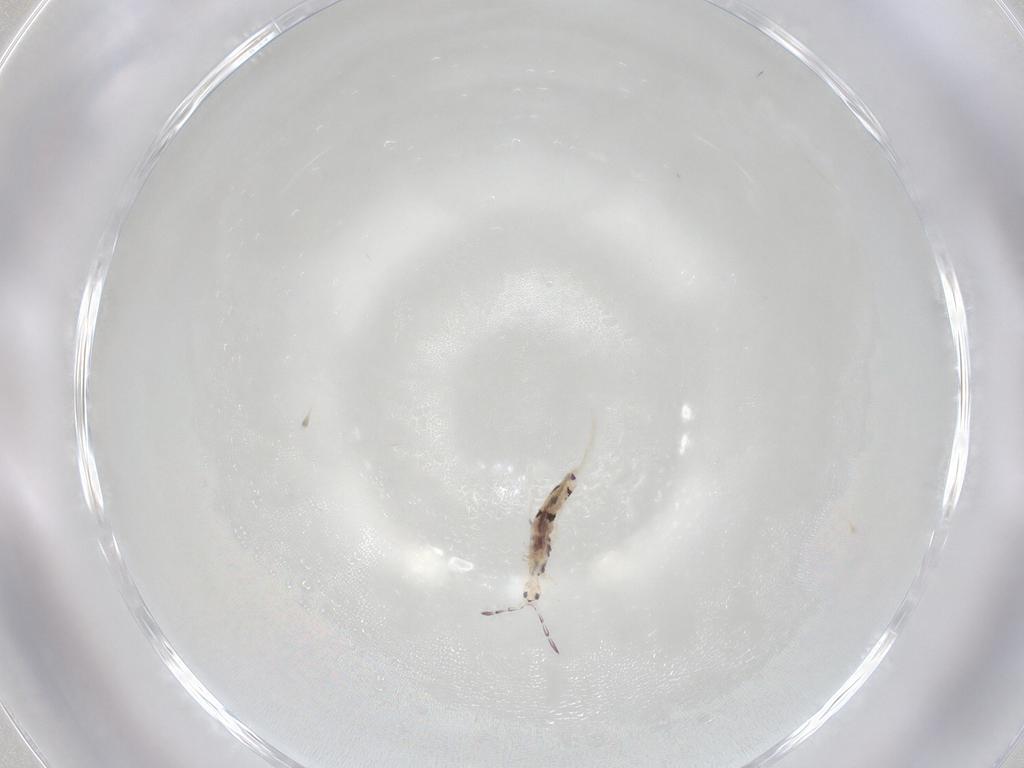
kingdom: Animalia
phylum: Arthropoda
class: Collembola
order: Entomobryomorpha
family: Entomobryidae
